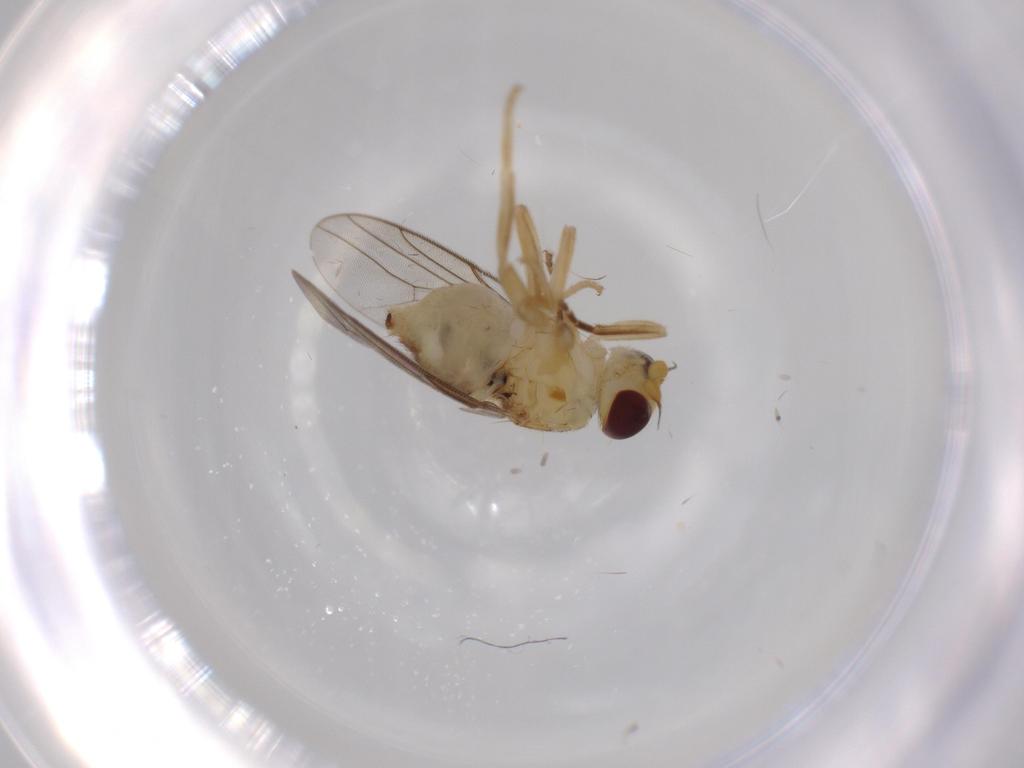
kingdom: Animalia
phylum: Arthropoda
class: Insecta
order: Diptera
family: Chloropidae
